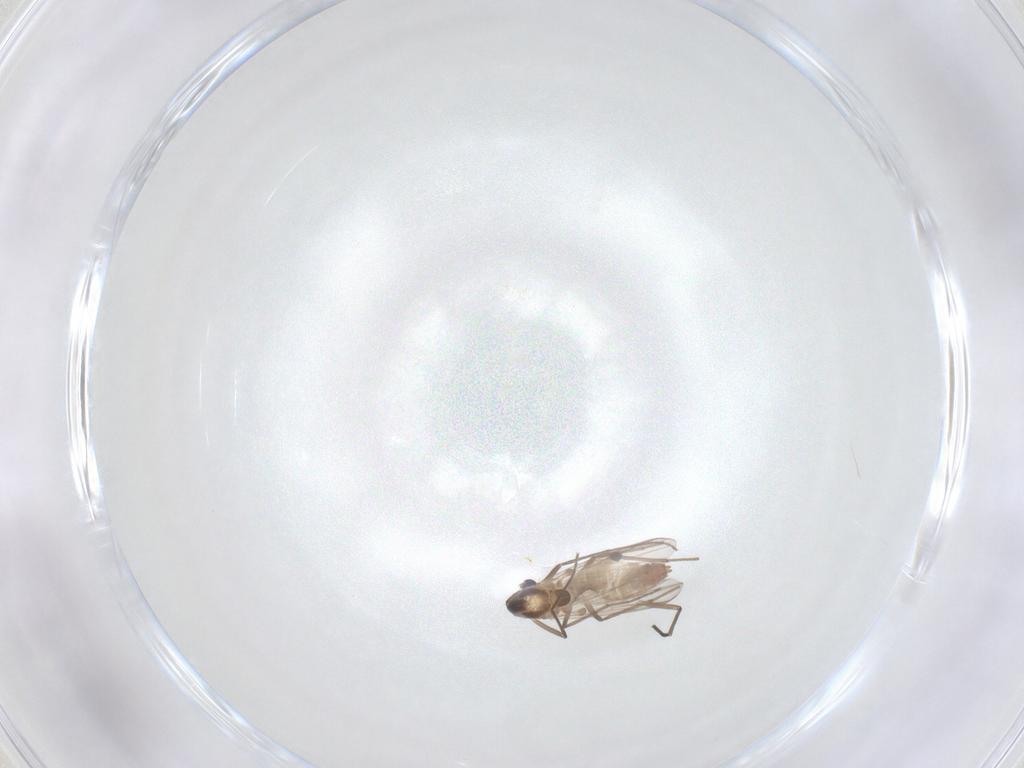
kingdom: Animalia
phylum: Arthropoda
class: Insecta
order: Diptera
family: Chironomidae
